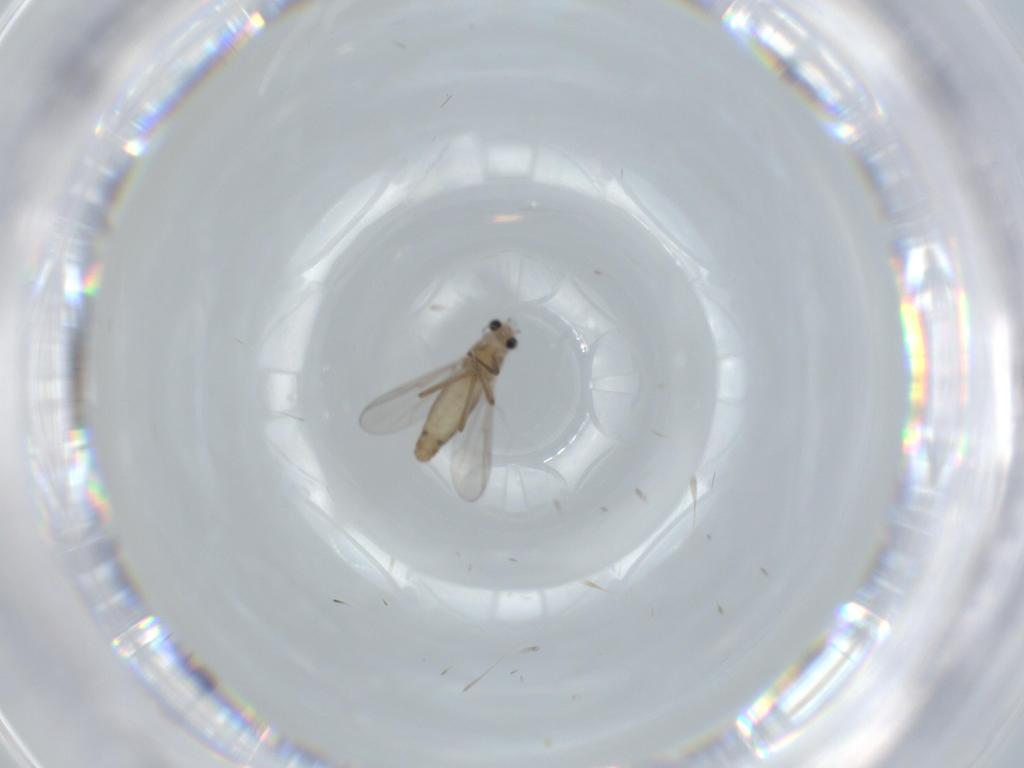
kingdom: Animalia
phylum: Arthropoda
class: Insecta
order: Diptera
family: Chironomidae
